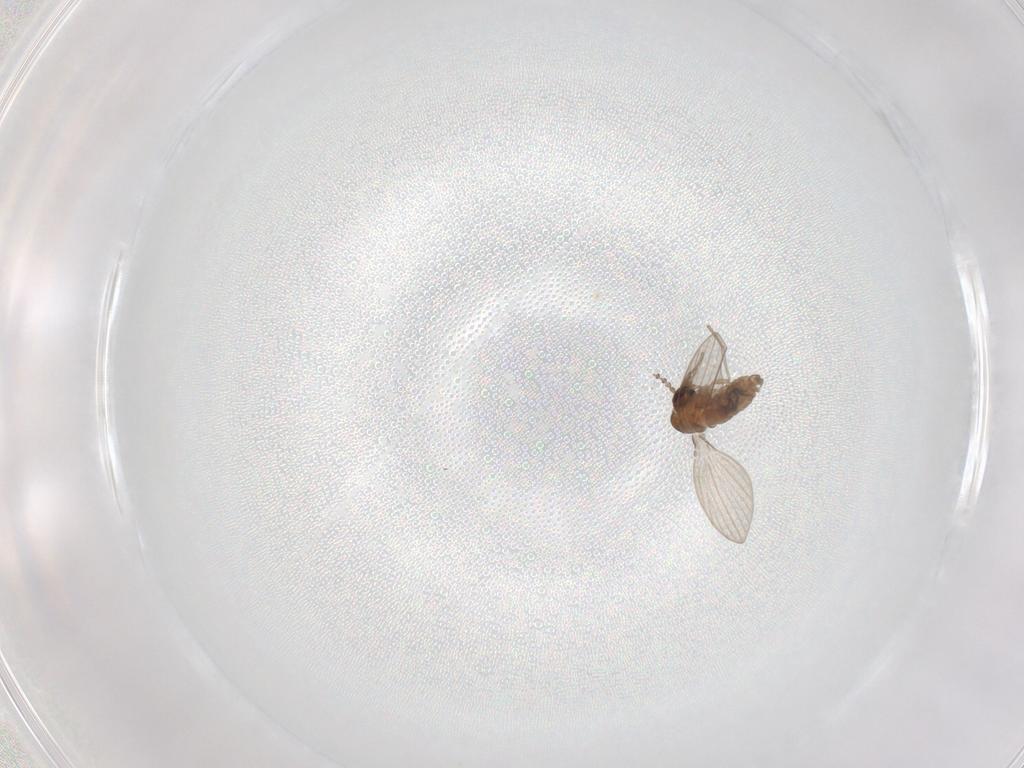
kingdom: Animalia
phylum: Arthropoda
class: Insecta
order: Diptera
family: Psychodidae
